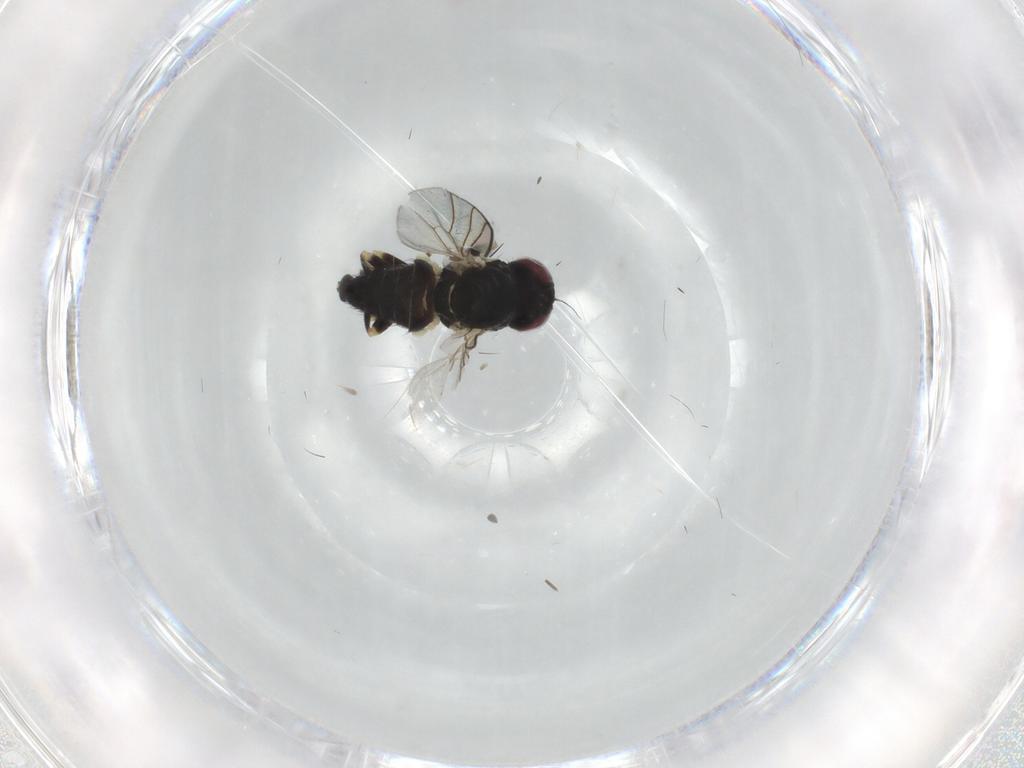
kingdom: Animalia
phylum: Arthropoda
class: Insecta
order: Diptera
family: Agromyzidae
